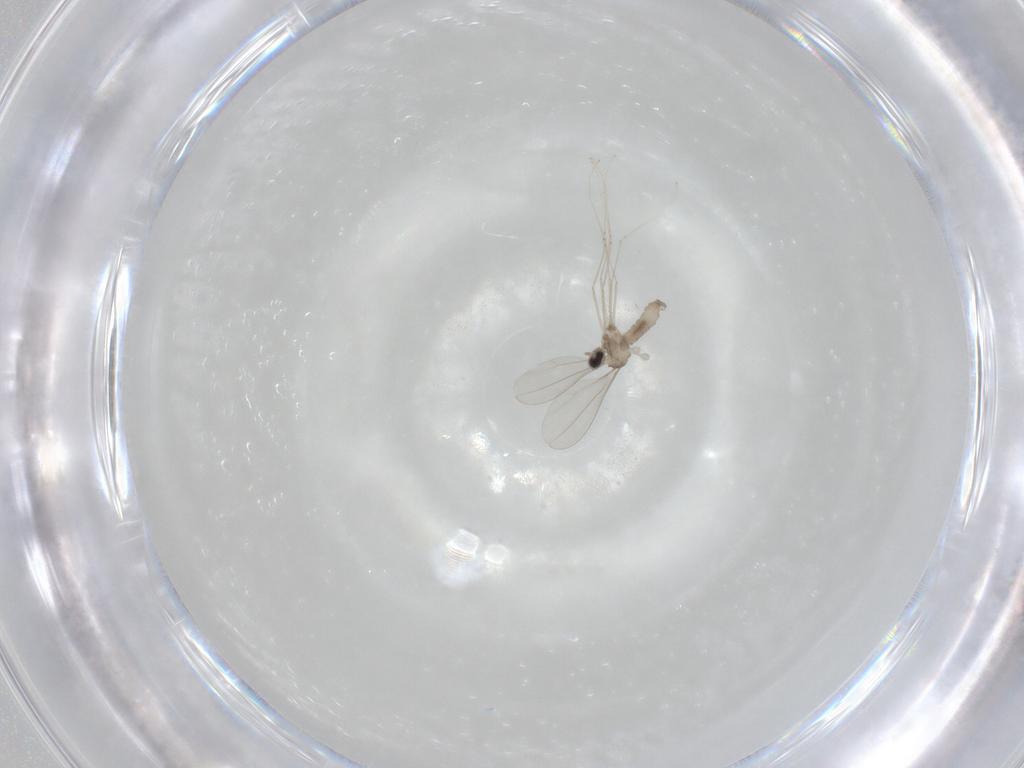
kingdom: Animalia
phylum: Arthropoda
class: Insecta
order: Diptera
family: Cecidomyiidae
